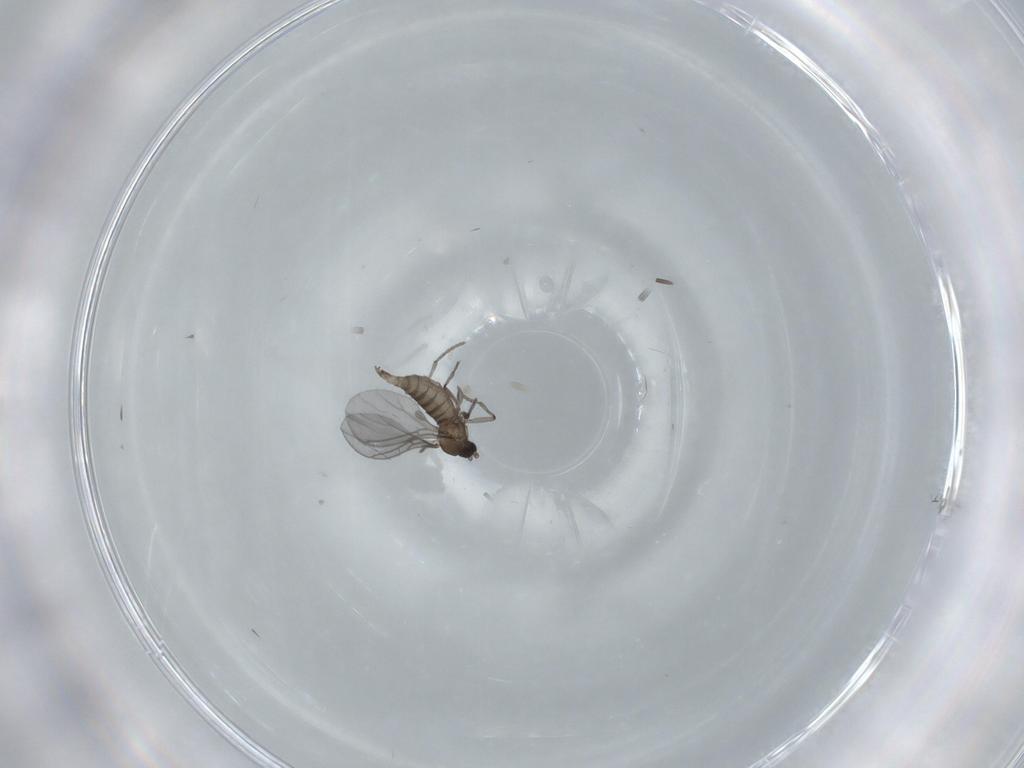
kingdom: Animalia
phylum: Arthropoda
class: Insecta
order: Diptera
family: Sciaridae
